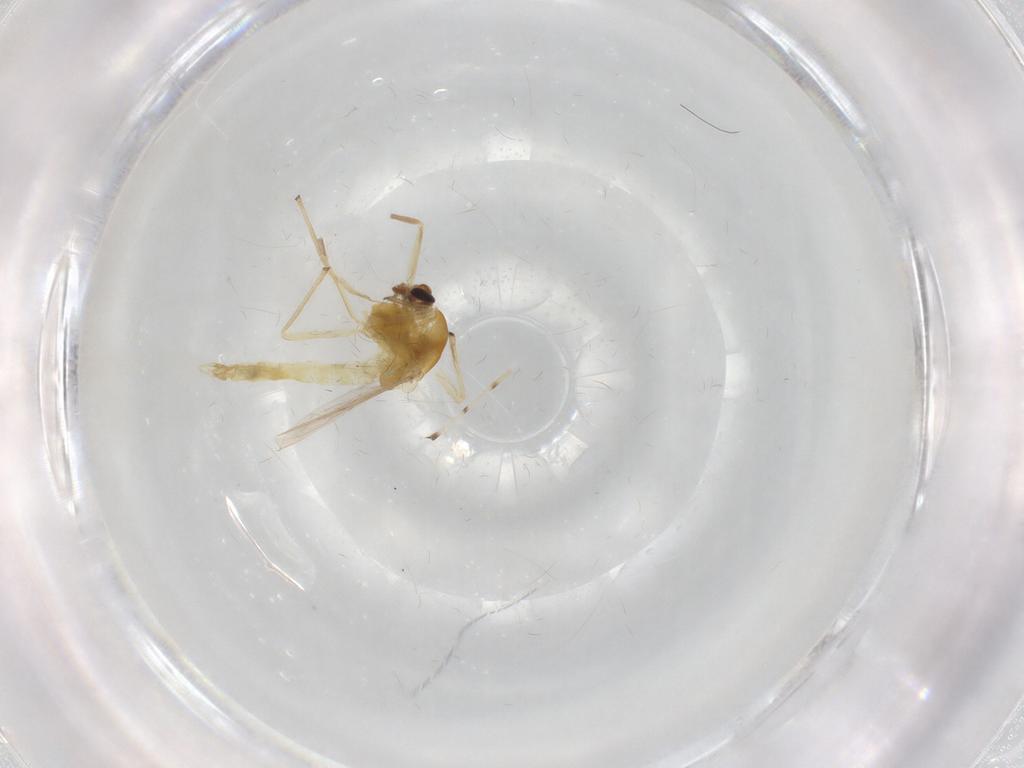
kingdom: Animalia
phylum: Arthropoda
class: Insecta
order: Diptera
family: Chironomidae
